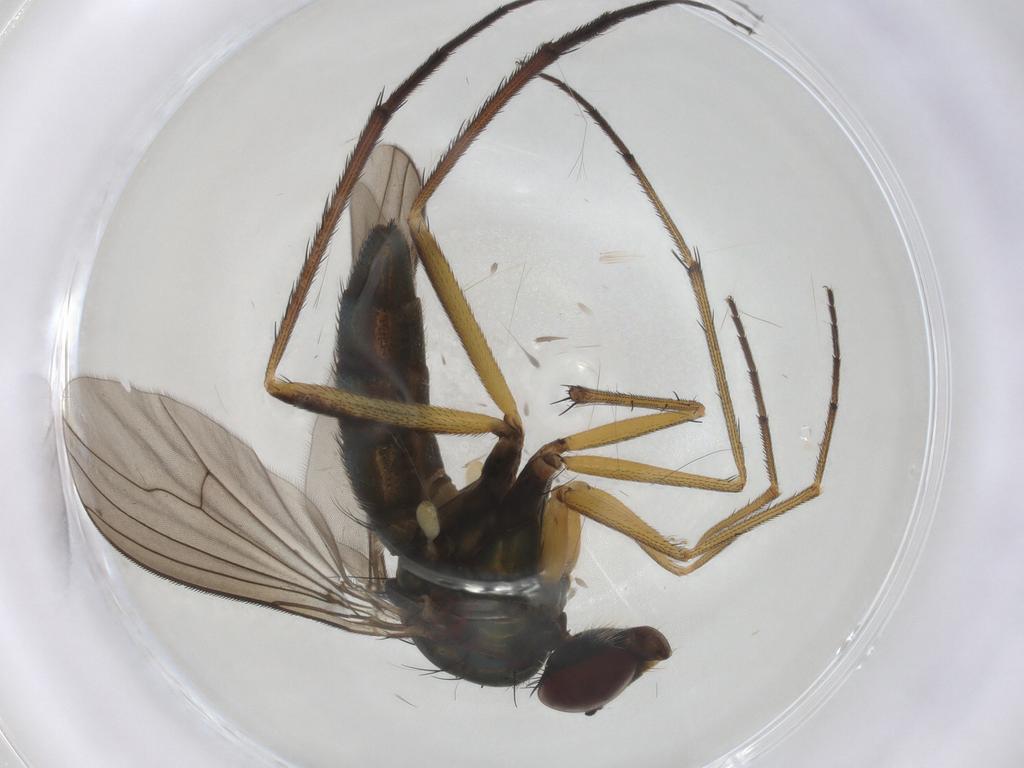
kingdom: Animalia
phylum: Arthropoda
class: Insecta
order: Diptera
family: Dolichopodidae
